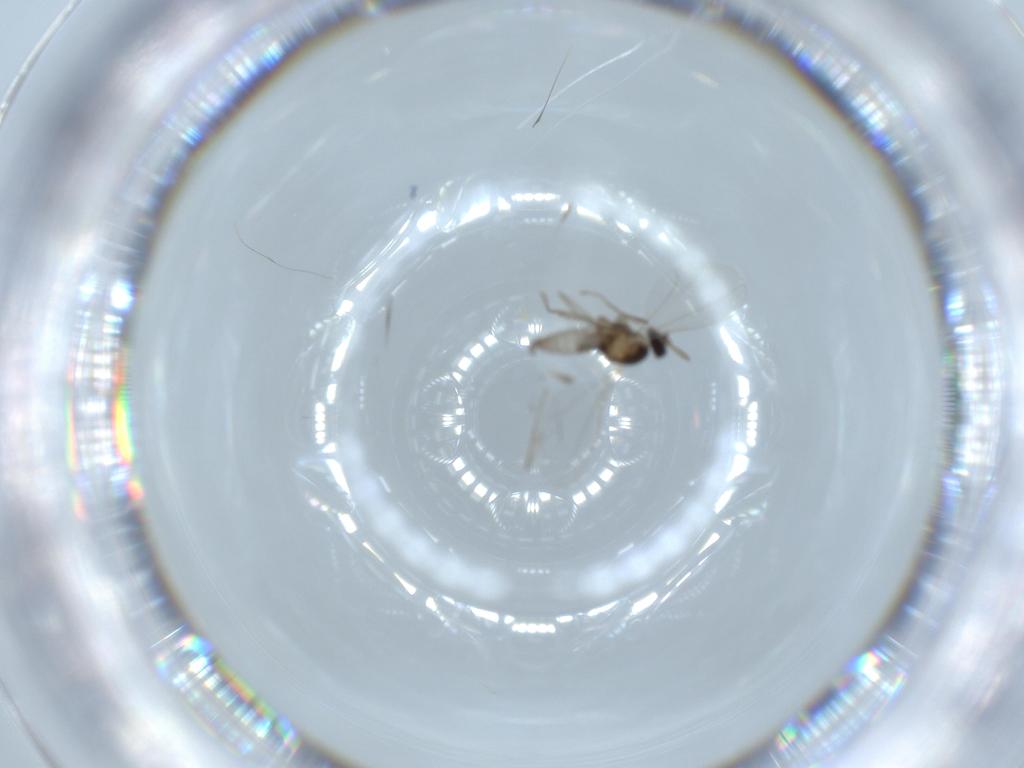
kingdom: Animalia
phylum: Arthropoda
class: Insecta
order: Diptera
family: Cecidomyiidae
